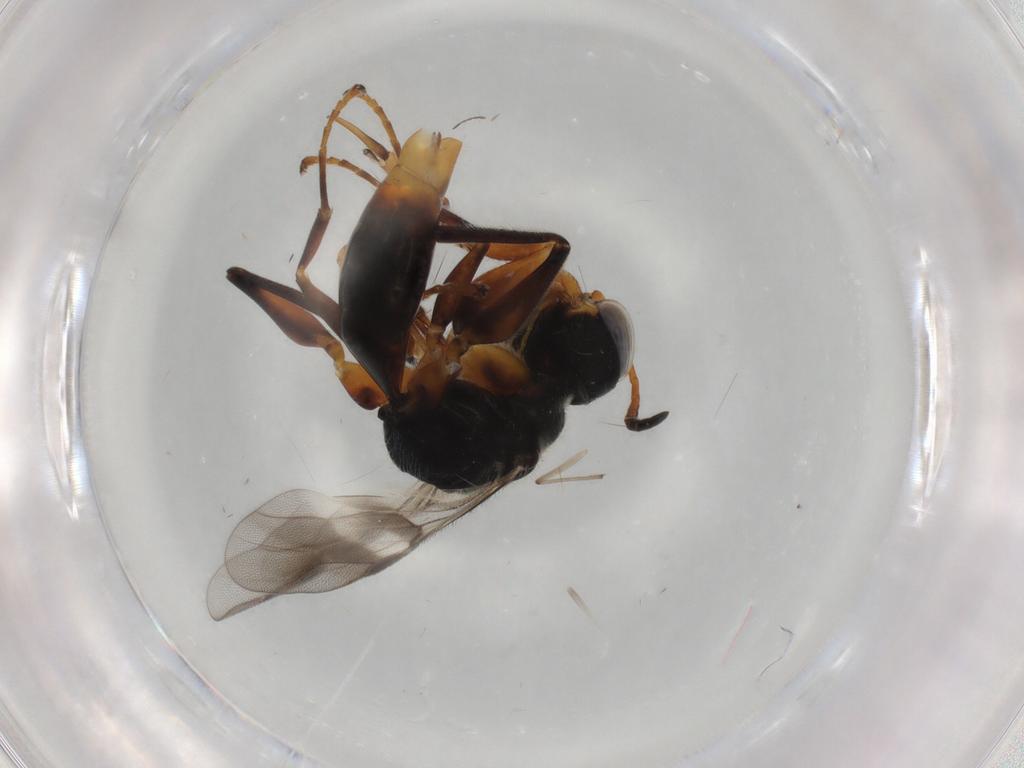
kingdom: Animalia
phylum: Arthropoda
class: Insecta
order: Hymenoptera
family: Dryinidae
